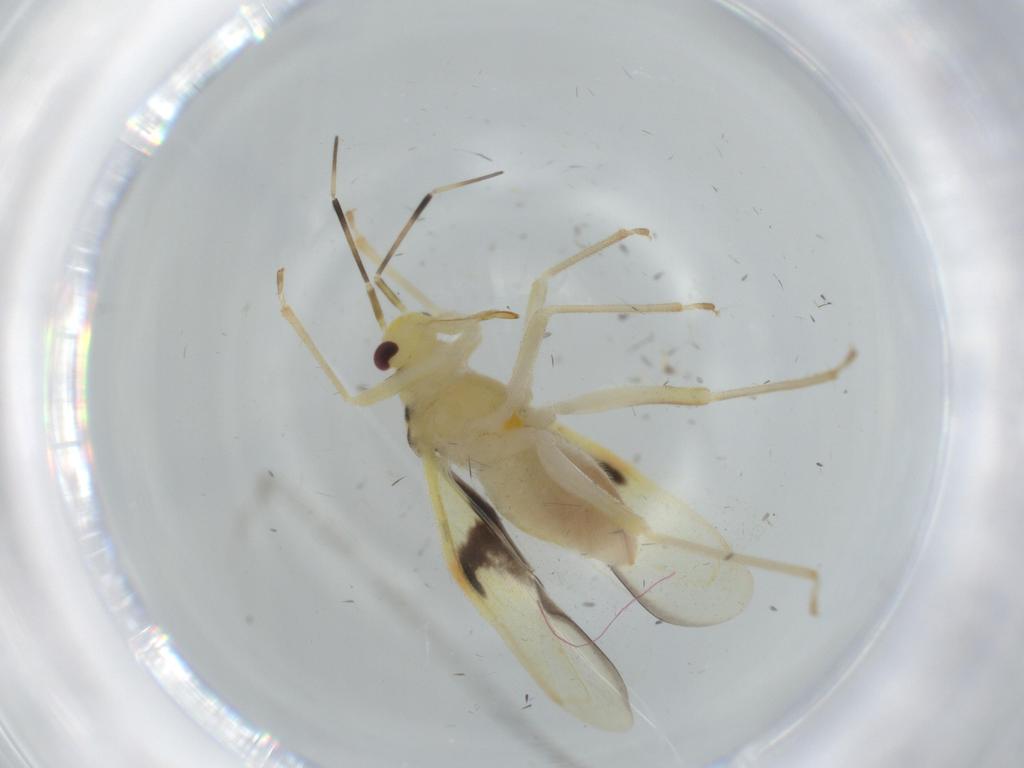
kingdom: Animalia
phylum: Arthropoda
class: Insecta
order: Hemiptera
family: Miridae
